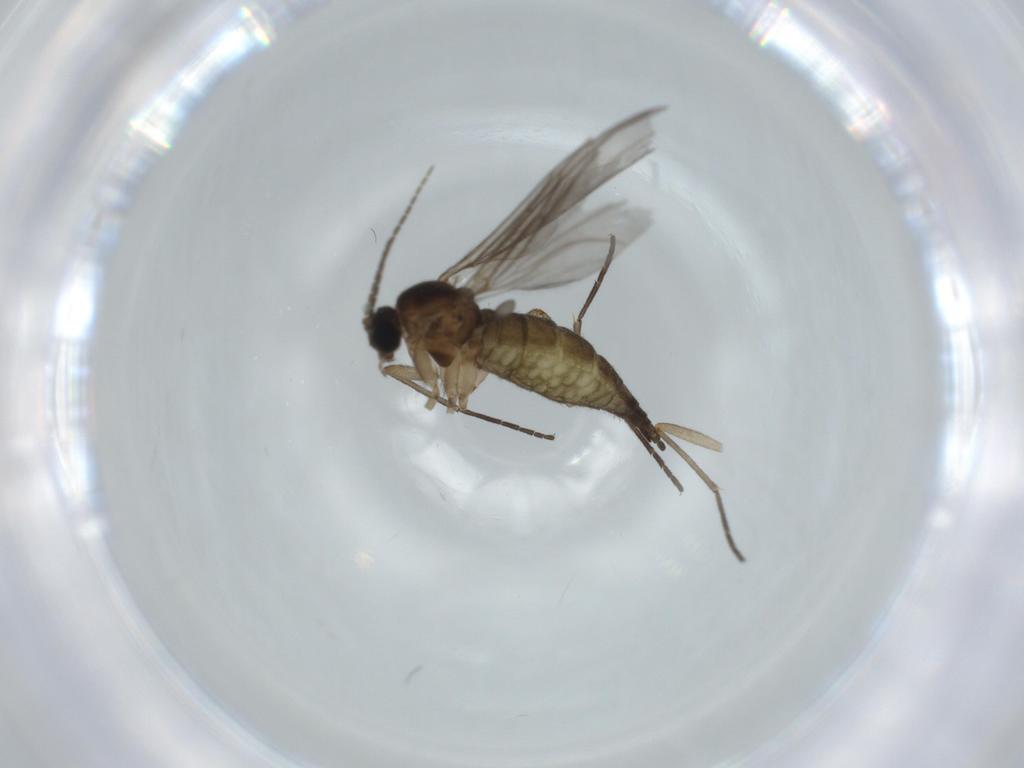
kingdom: Animalia
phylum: Arthropoda
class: Insecta
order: Diptera
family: Sciaridae
